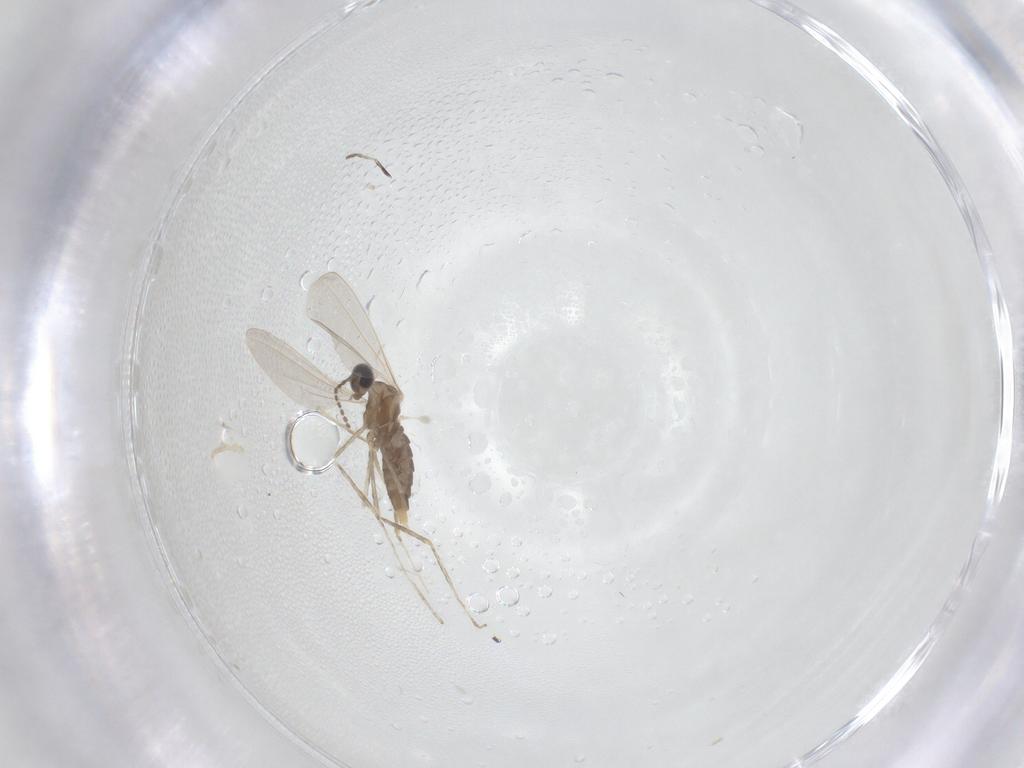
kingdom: Animalia
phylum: Arthropoda
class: Insecta
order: Diptera
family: Cecidomyiidae
